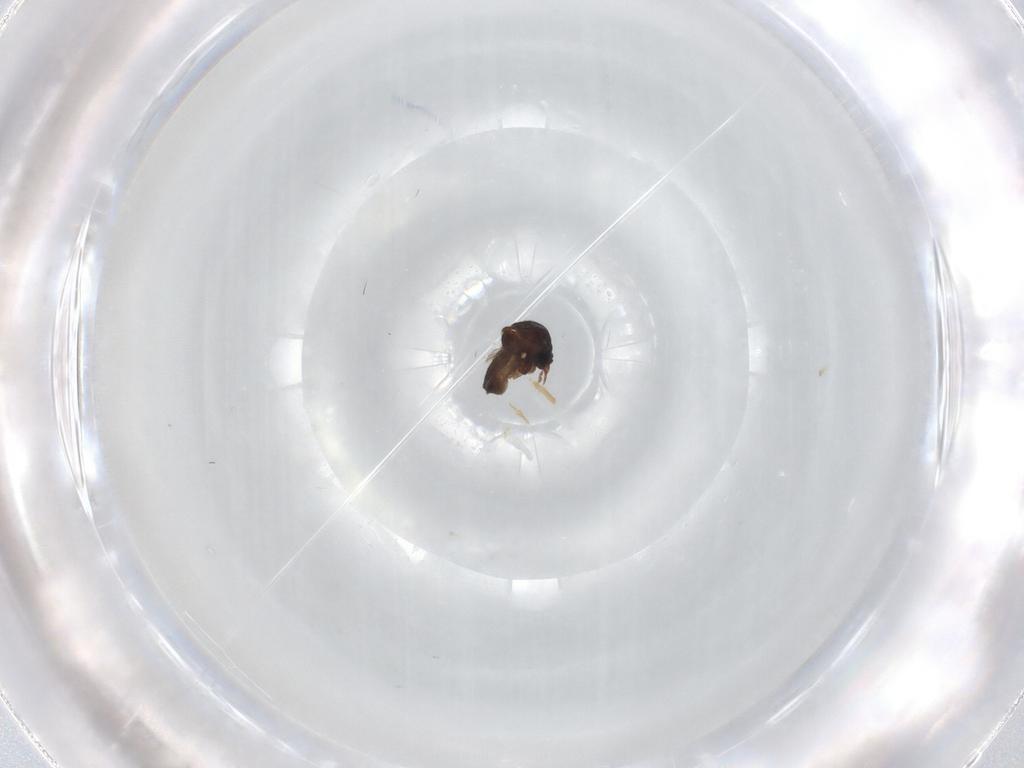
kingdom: Animalia
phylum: Arthropoda
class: Insecta
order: Diptera
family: Ceratopogonidae
